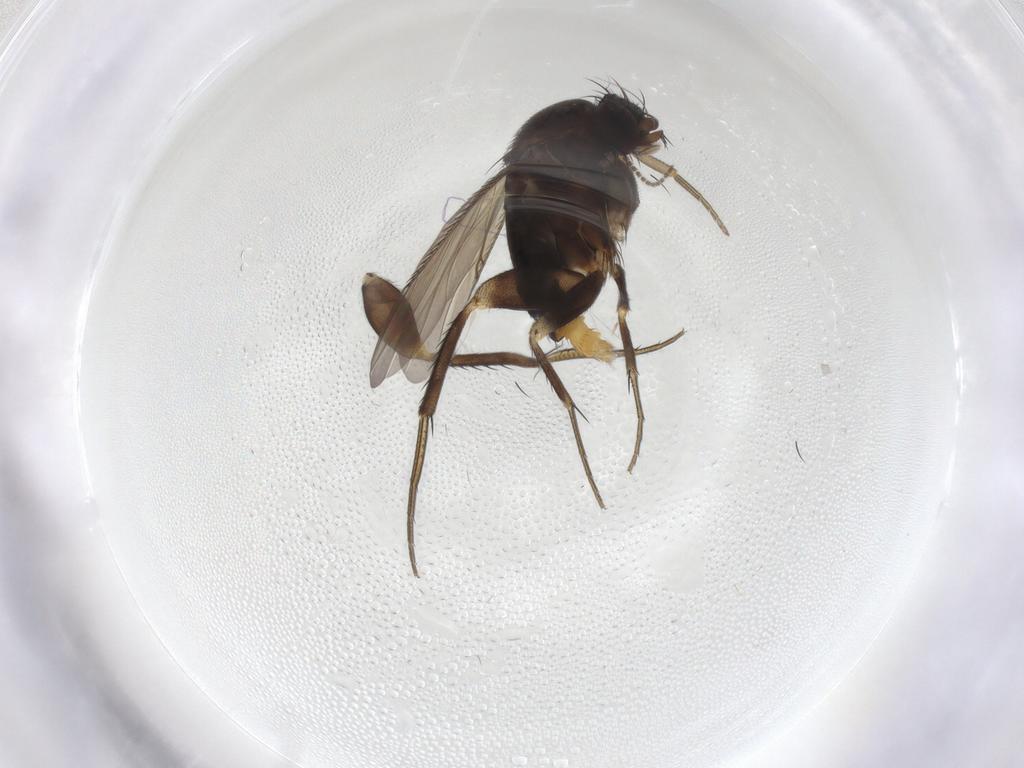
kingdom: Animalia
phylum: Arthropoda
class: Insecta
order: Diptera
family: Phoridae
